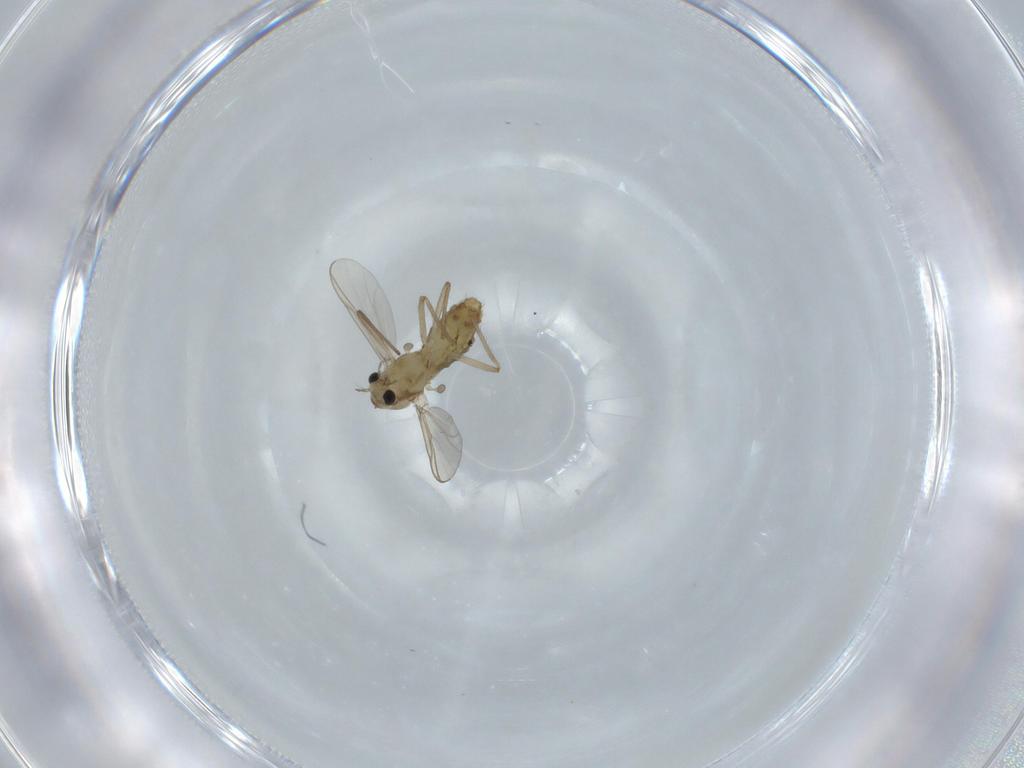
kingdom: Animalia
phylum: Arthropoda
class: Insecta
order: Diptera
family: Chironomidae
